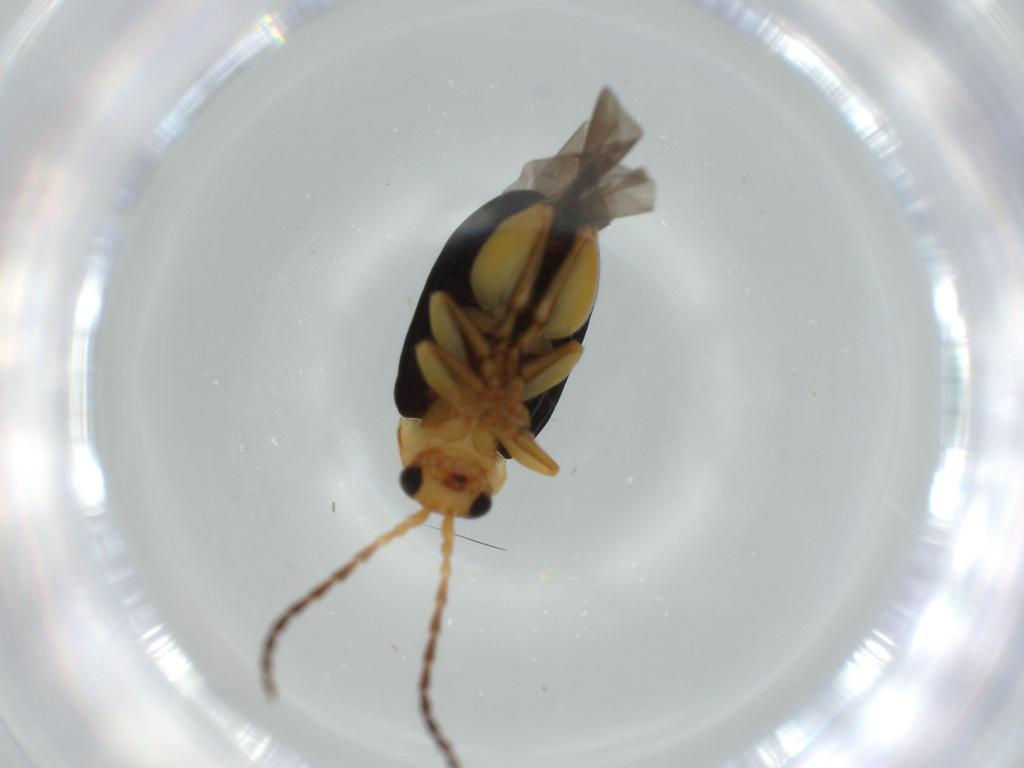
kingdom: Animalia
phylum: Arthropoda
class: Insecta
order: Coleoptera
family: Chrysomelidae
